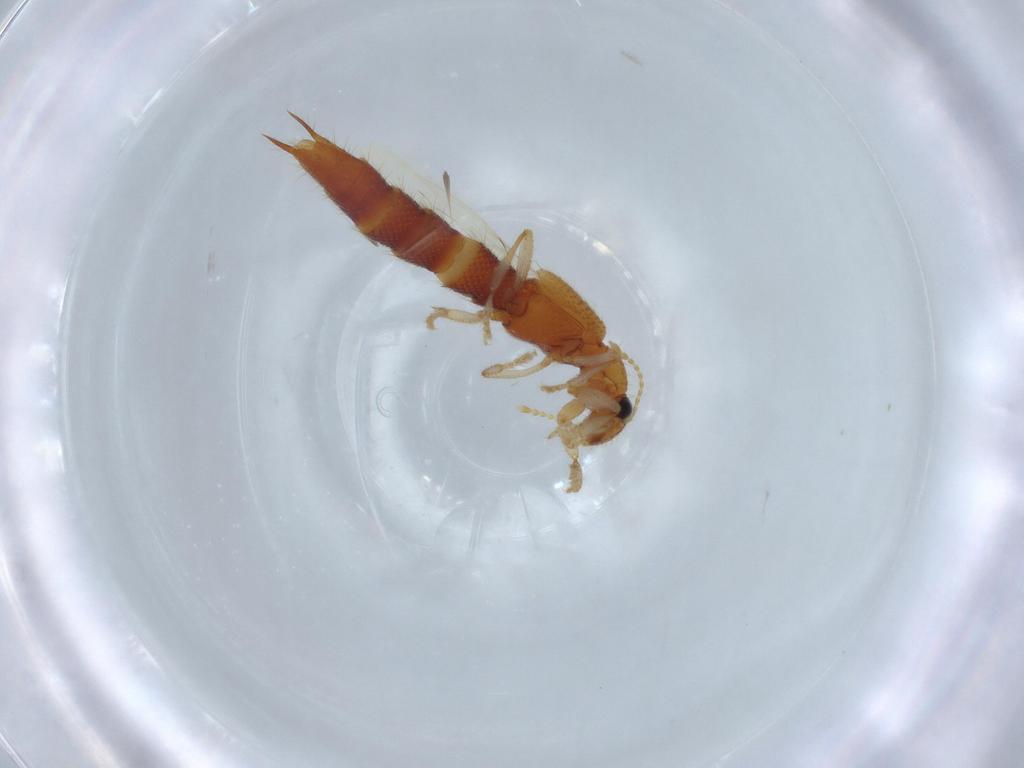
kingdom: Animalia
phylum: Arthropoda
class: Insecta
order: Coleoptera
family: Staphylinidae
